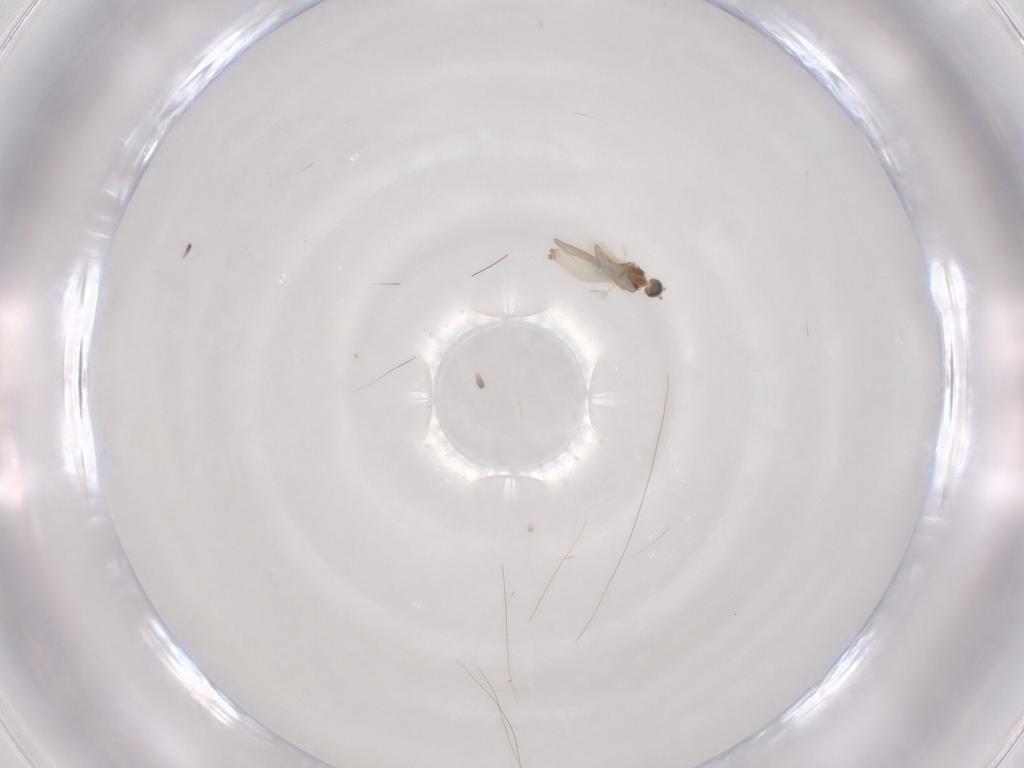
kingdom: Animalia
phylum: Arthropoda
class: Insecta
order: Diptera
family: Cecidomyiidae
